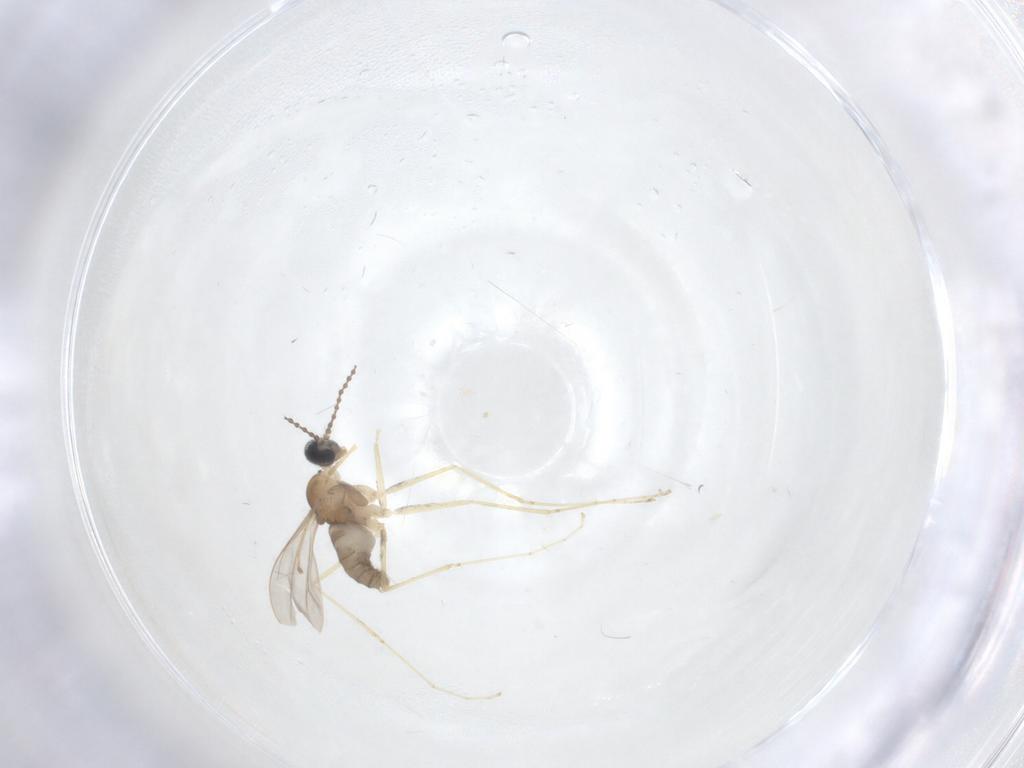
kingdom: Animalia
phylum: Arthropoda
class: Insecta
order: Diptera
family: Cecidomyiidae
